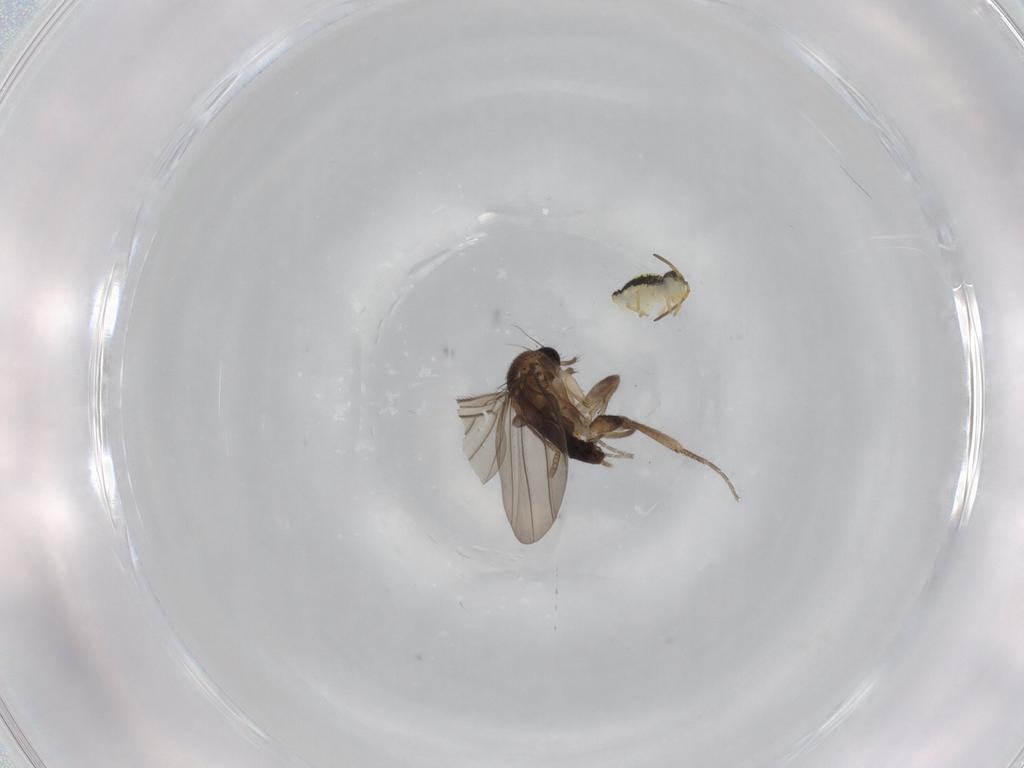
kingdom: Animalia
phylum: Arthropoda
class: Insecta
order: Diptera
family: Phoridae
